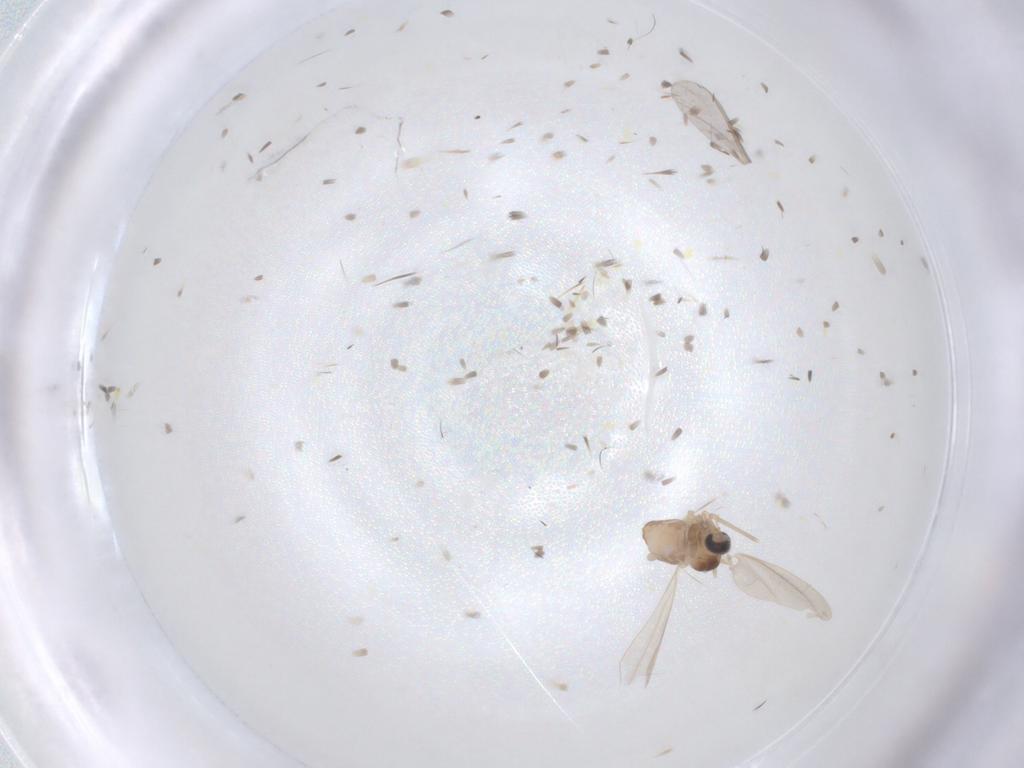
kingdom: Animalia
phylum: Arthropoda
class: Insecta
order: Diptera
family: Cecidomyiidae
